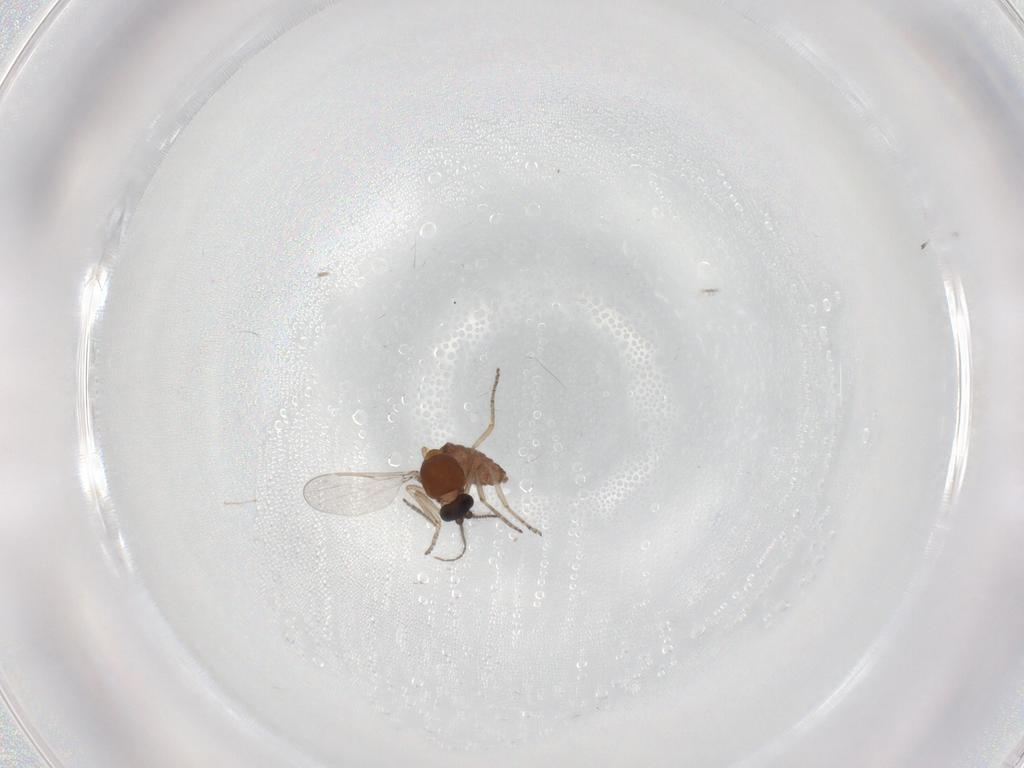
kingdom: Animalia
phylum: Arthropoda
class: Insecta
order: Diptera
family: Ceratopogonidae
